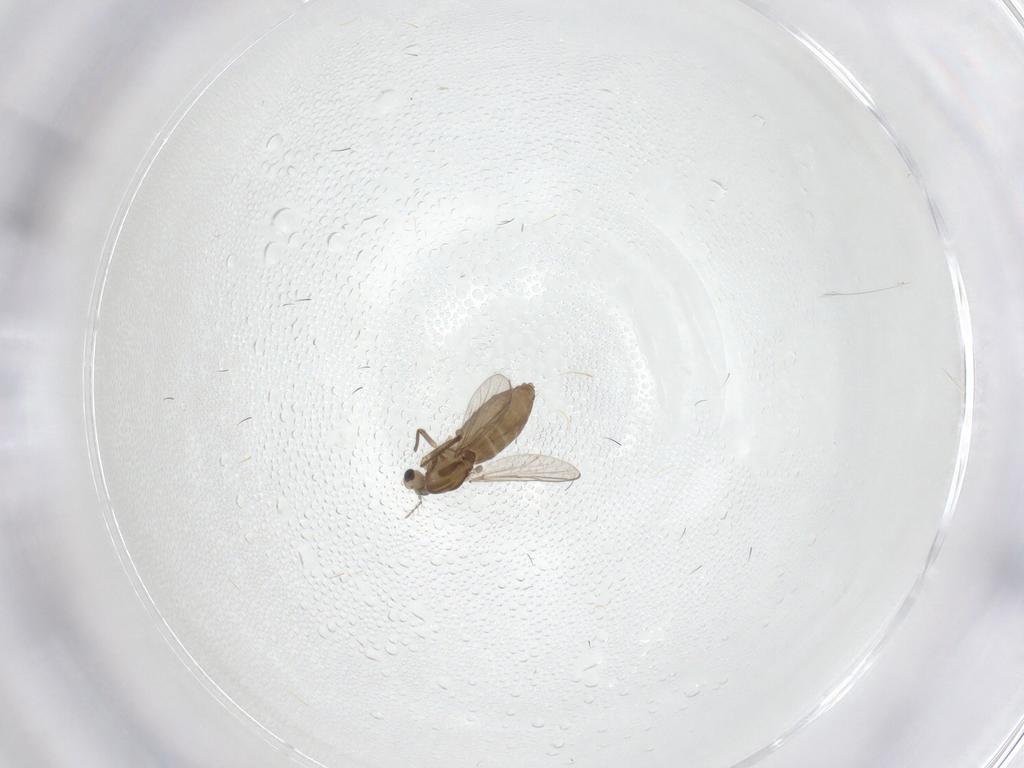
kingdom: Animalia
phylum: Arthropoda
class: Insecta
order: Diptera
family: Chironomidae
